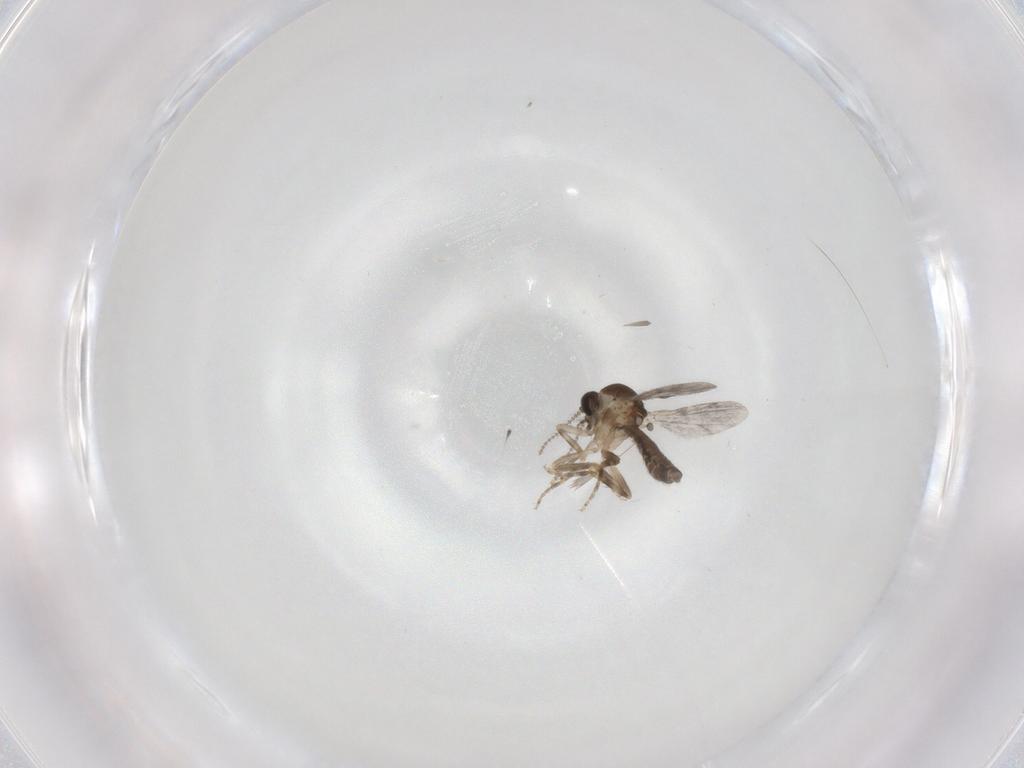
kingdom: Animalia
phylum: Arthropoda
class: Insecta
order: Diptera
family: Ceratopogonidae
